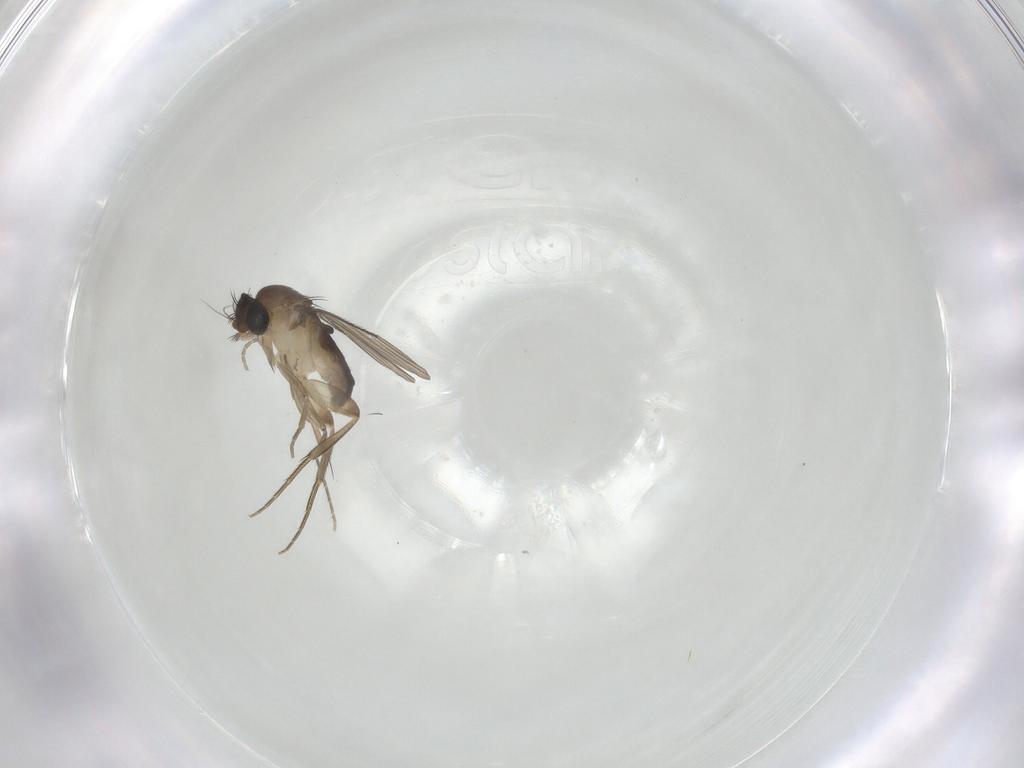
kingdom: Animalia
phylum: Arthropoda
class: Insecta
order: Diptera
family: Phoridae
